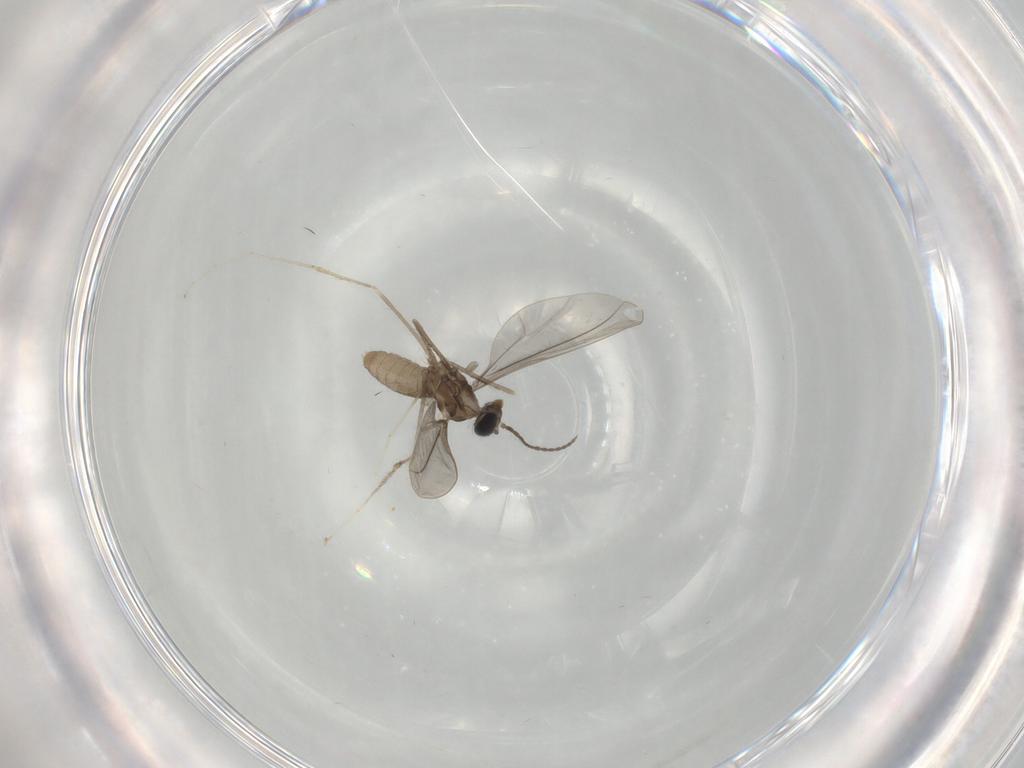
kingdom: Animalia
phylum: Arthropoda
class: Insecta
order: Diptera
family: Cecidomyiidae
